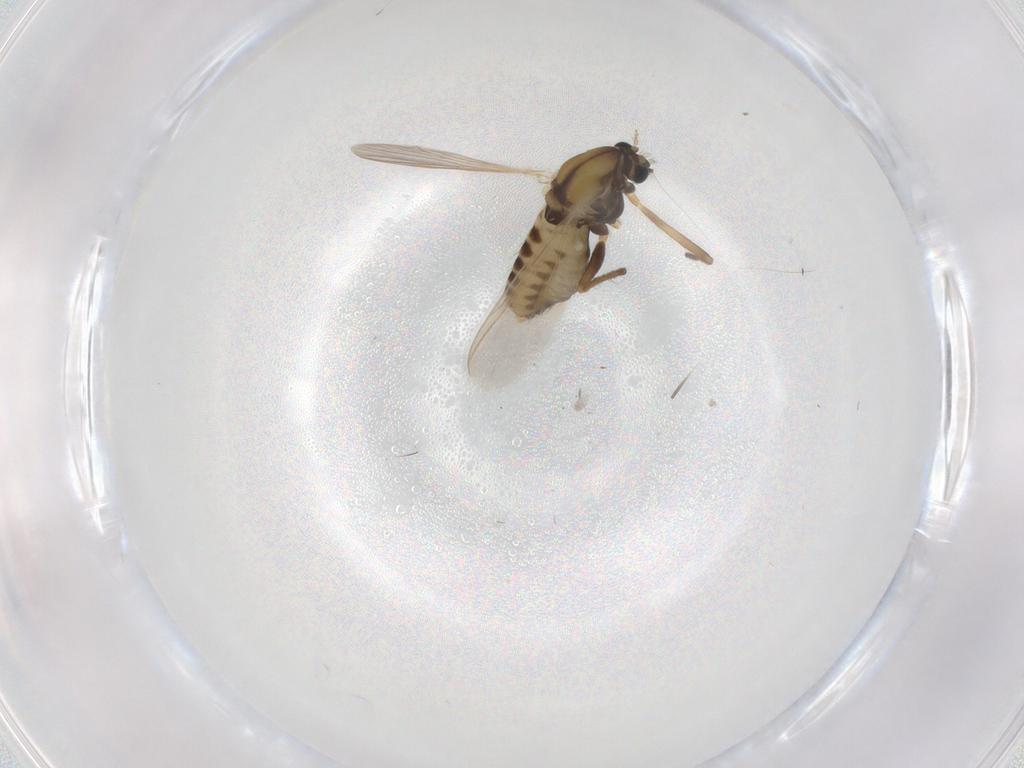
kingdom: Animalia
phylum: Arthropoda
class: Insecta
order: Diptera
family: Chironomidae
